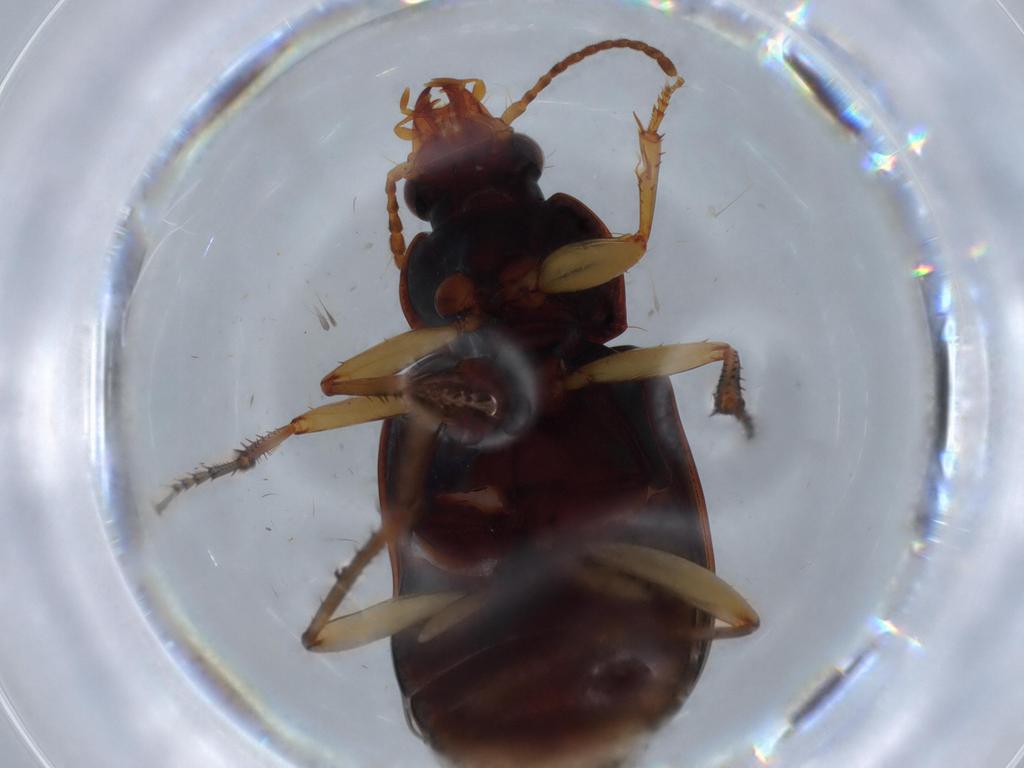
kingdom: Animalia
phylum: Arthropoda
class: Insecta
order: Coleoptera
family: Carabidae
